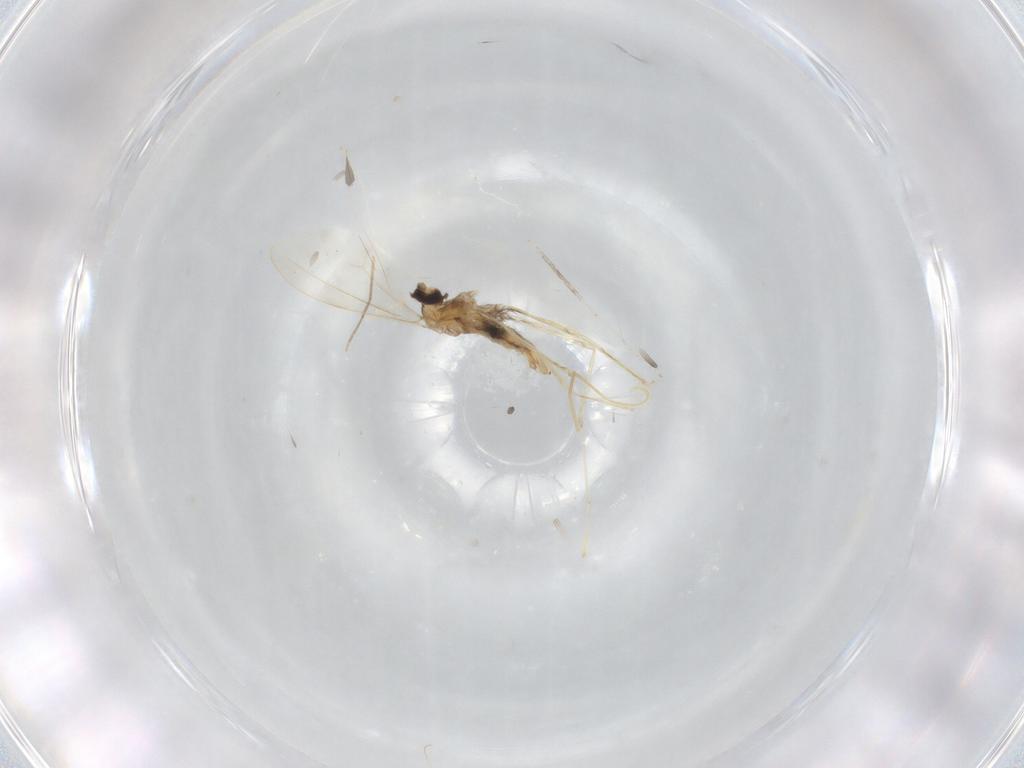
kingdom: Animalia
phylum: Arthropoda
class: Insecta
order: Diptera
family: Cecidomyiidae
